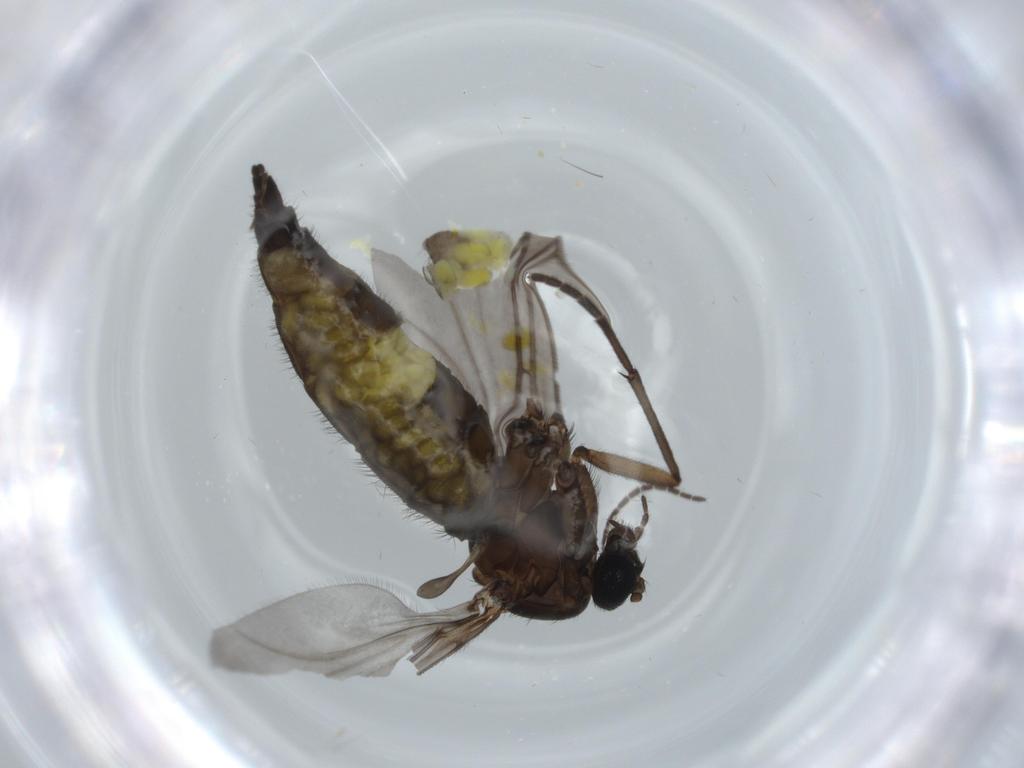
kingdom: Animalia
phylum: Arthropoda
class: Insecta
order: Diptera
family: Sciaridae
